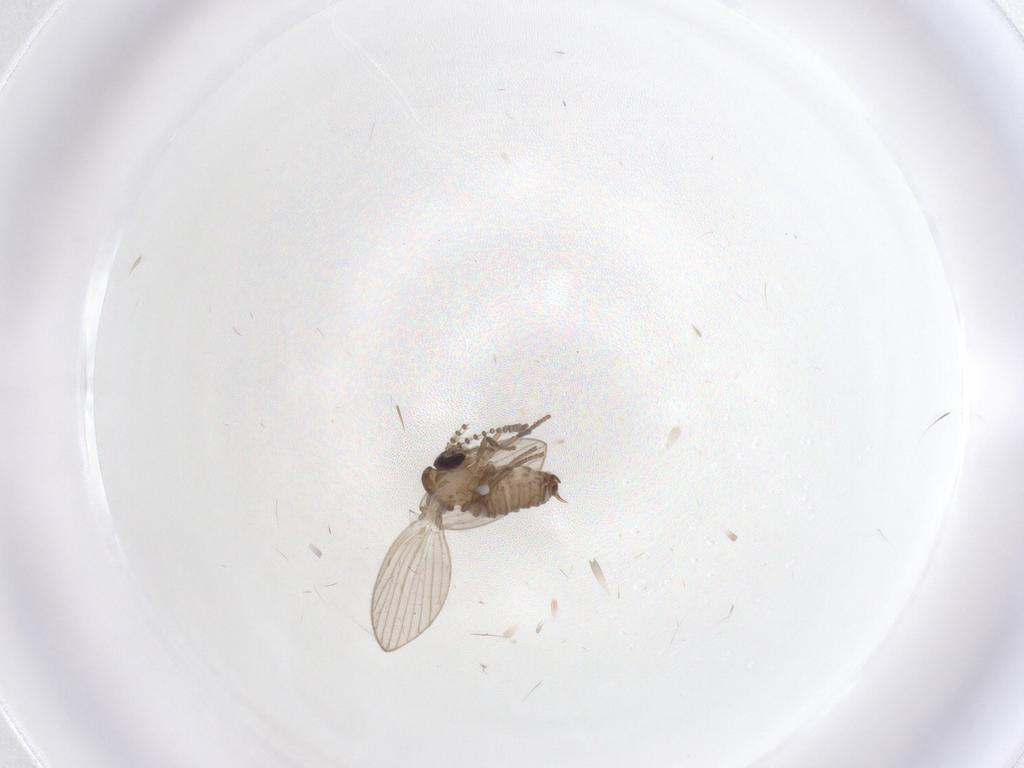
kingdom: Animalia
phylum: Arthropoda
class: Insecta
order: Diptera
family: Psychodidae
